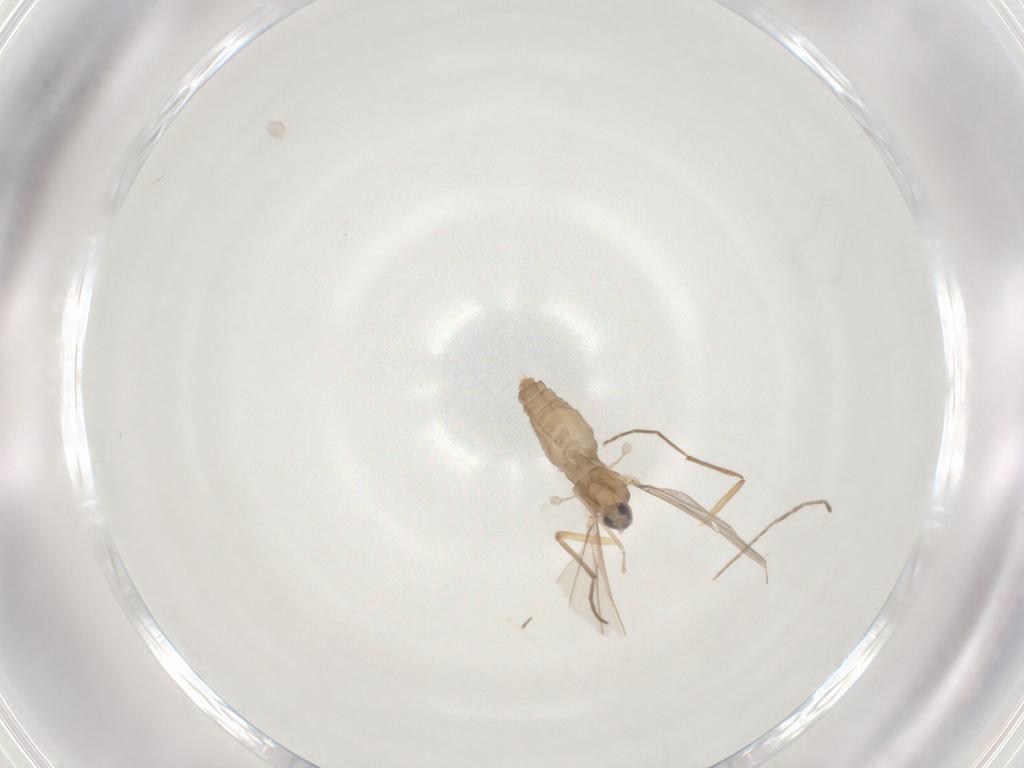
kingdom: Animalia
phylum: Arthropoda
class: Insecta
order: Diptera
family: Cecidomyiidae
